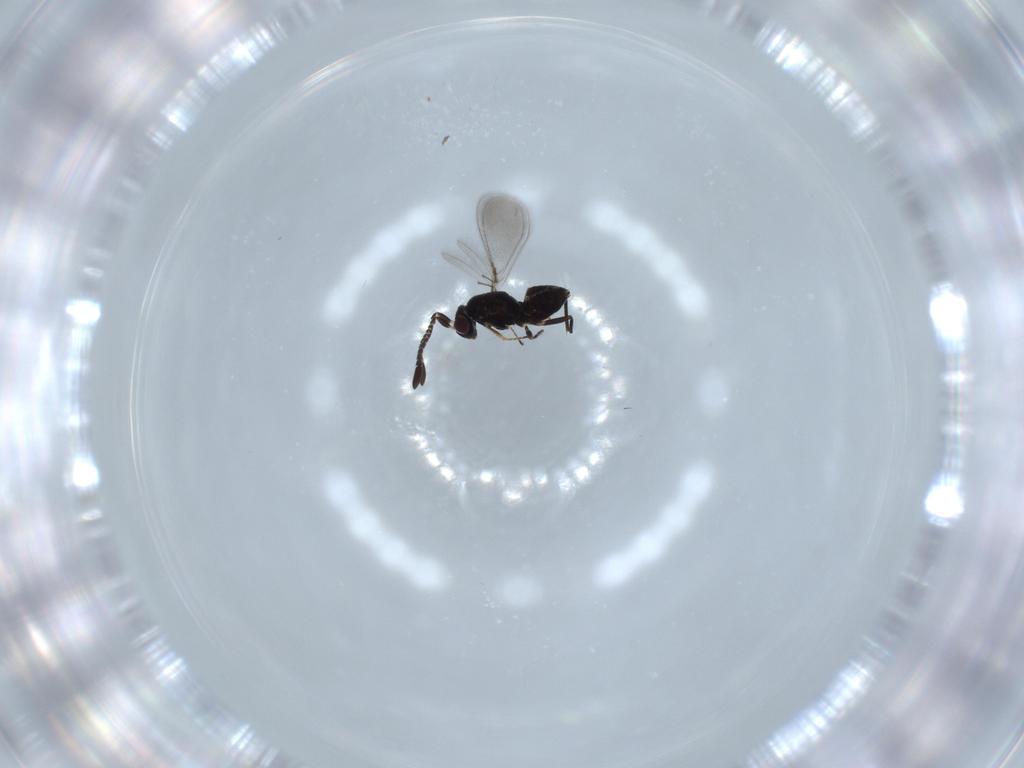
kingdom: Animalia
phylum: Arthropoda
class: Insecta
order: Hymenoptera
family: Mymaridae
